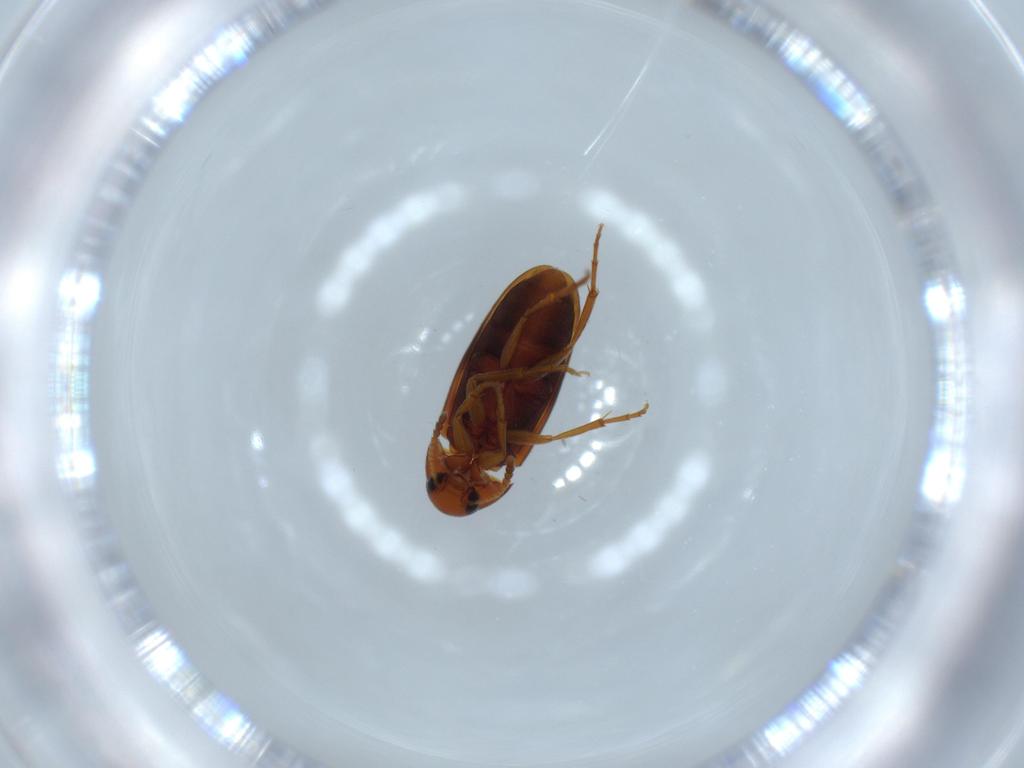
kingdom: Animalia
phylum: Arthropoda
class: Insecta
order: Coleoptera
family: Scraptiidae
